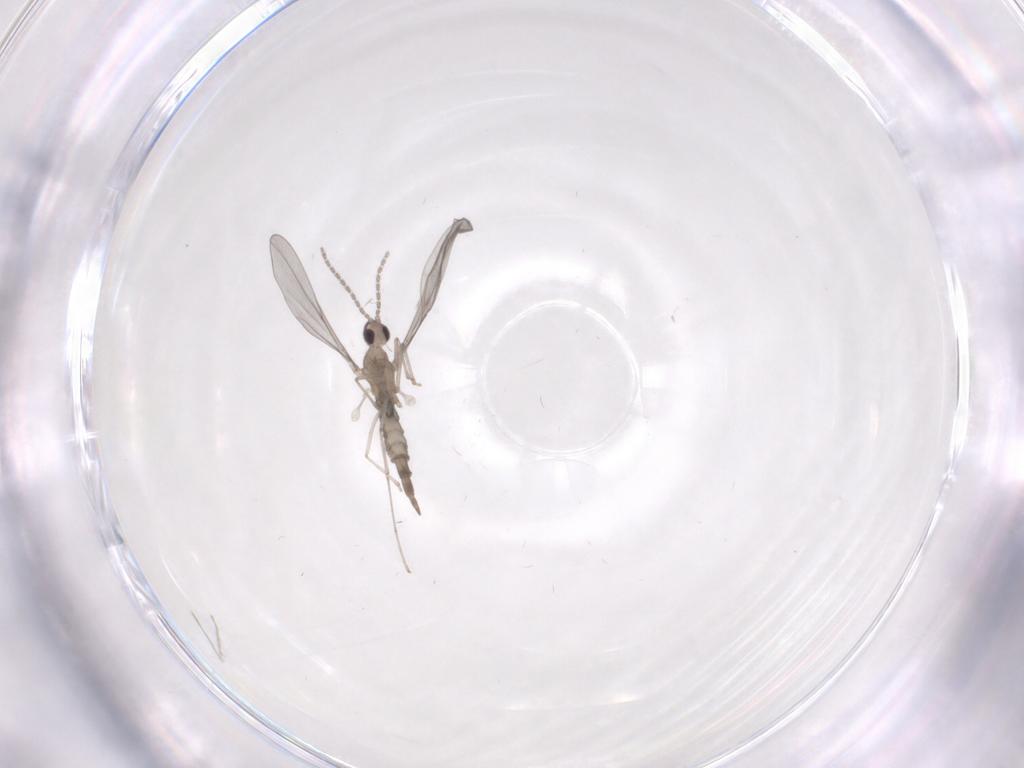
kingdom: Animalia
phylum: Arthropoda
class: Insecta
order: Diptera
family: Cecidomyiidae
